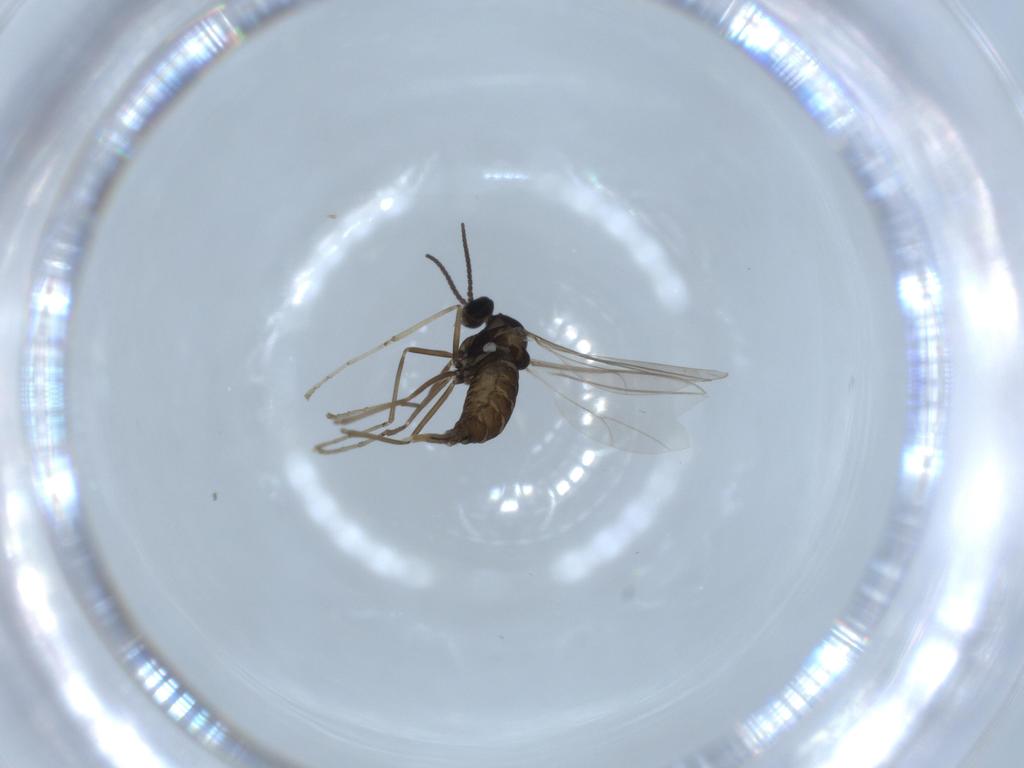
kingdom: Animalia
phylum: Arthropoda
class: Insecta
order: Diptera
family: Cecidomyiidae
